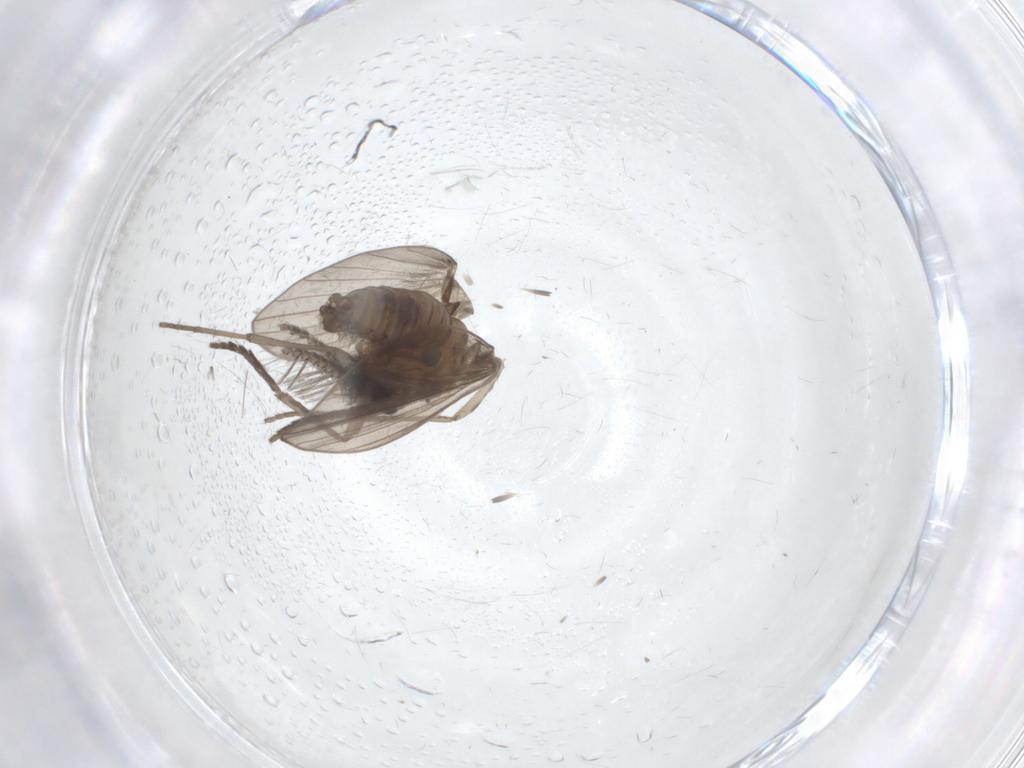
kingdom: Animalia
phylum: Arthropoda
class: Insecta
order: Diptera
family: Psychodidae
